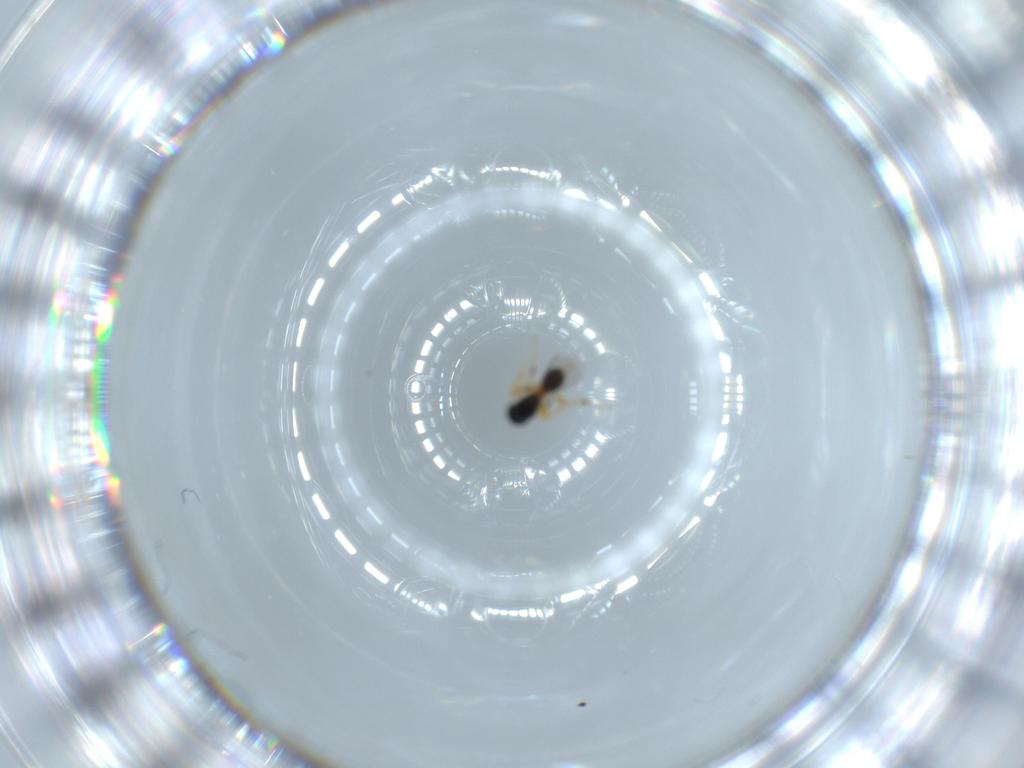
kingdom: Animalia
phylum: Arthropoda
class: Insecta
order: Hymenoptera
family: Platygastridae
